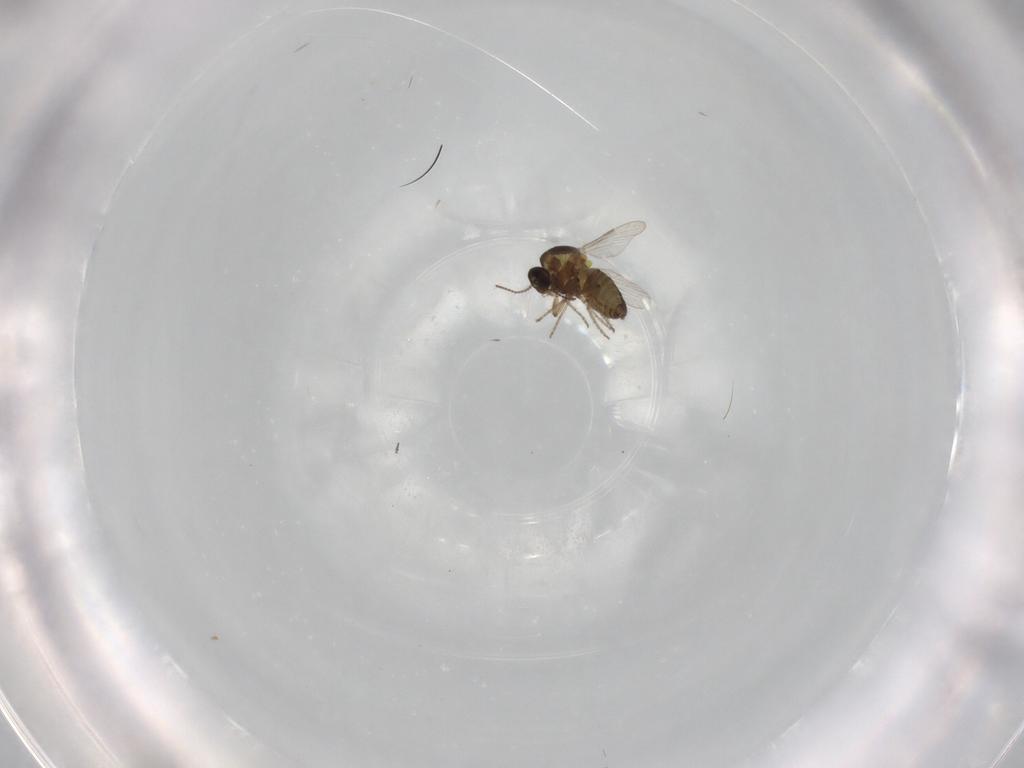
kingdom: Animalia
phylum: Arthropoda
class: Insecta
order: Diptera
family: Ceratopogonidae
